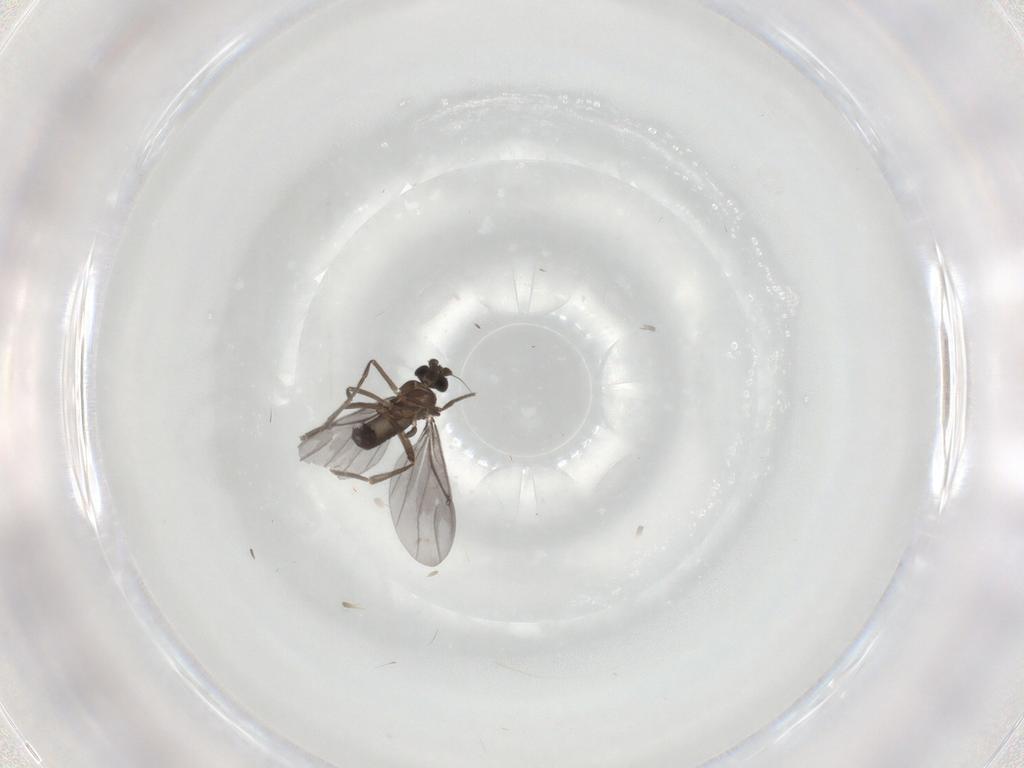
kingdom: Animalia
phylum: Arthropoda
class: Insecta
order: Diptera
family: Phoridae
